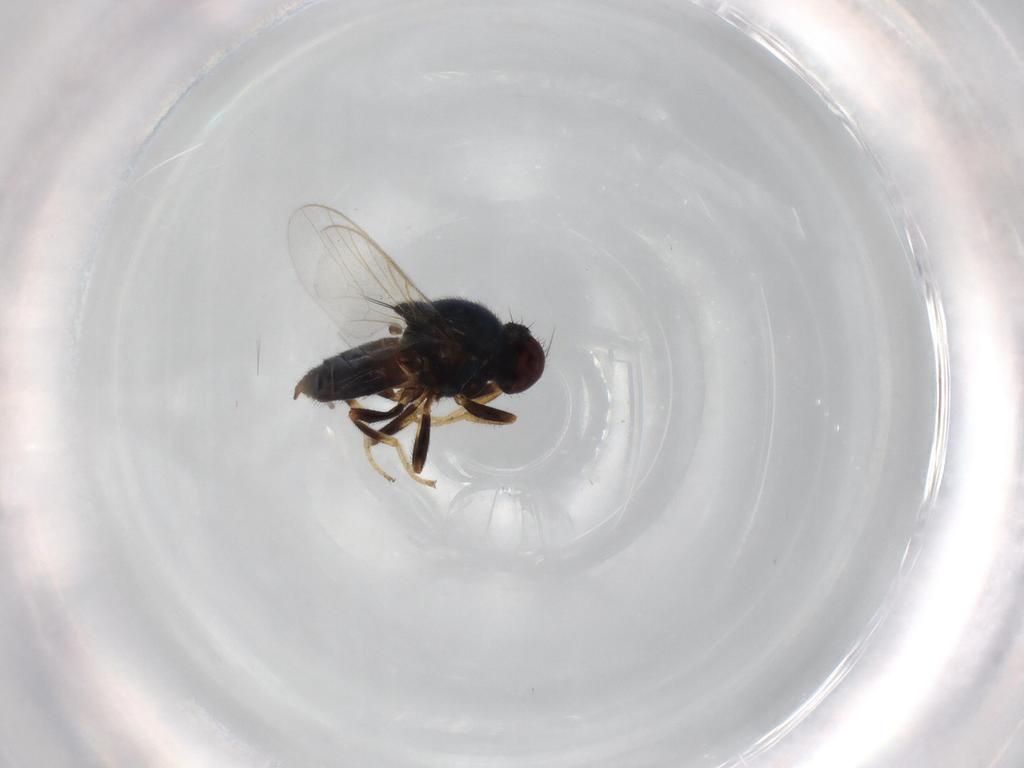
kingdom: Animalia
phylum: Arthropoda
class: Insecta
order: Diptera
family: Chloropidae
